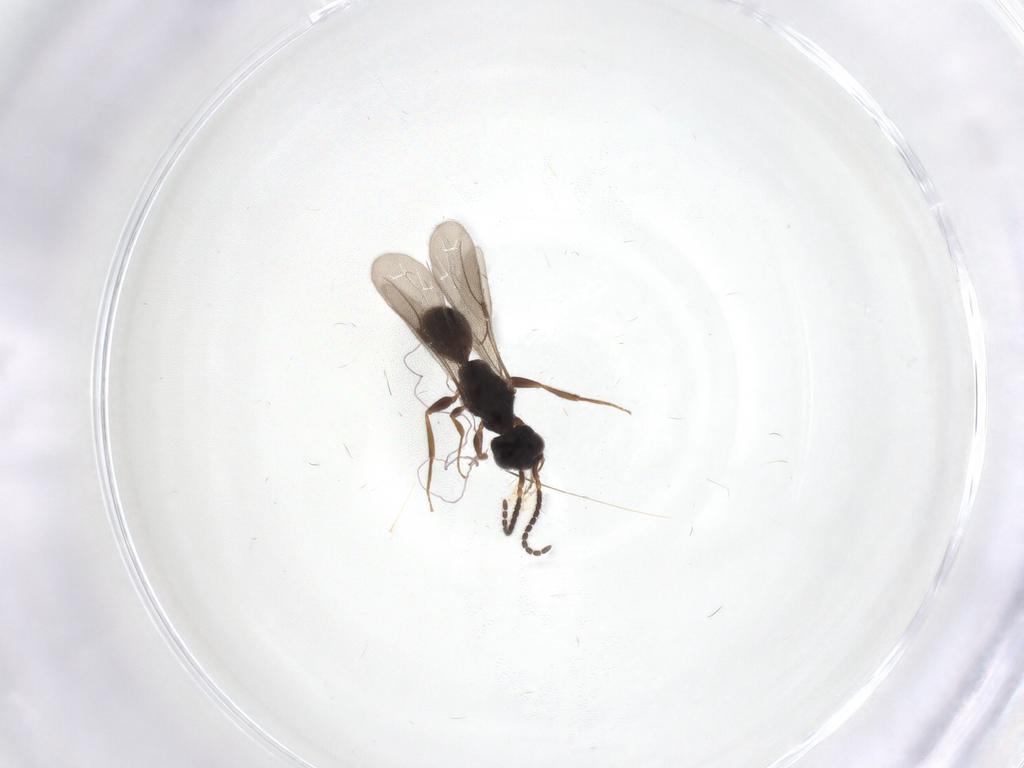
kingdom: Animalia
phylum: Arthropoda
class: Insecta
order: Hymenoptera
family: Bethylidae
